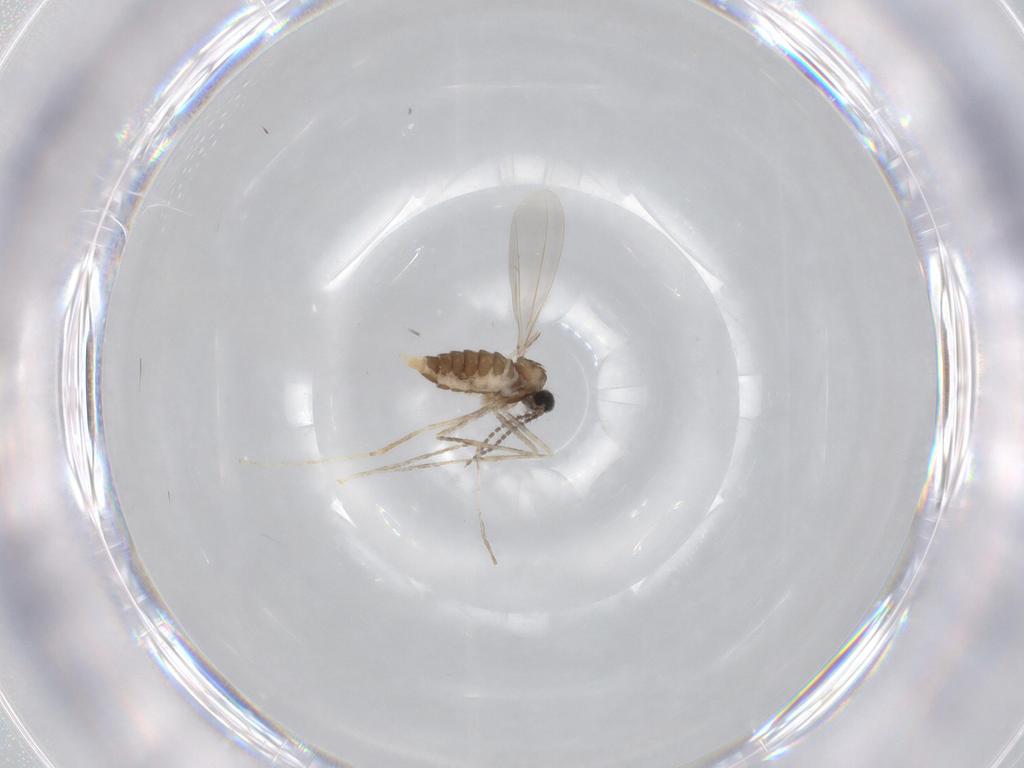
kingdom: Animalia
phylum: Arthropoda
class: Insecta
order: Diptera
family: Cecidomyiidae
